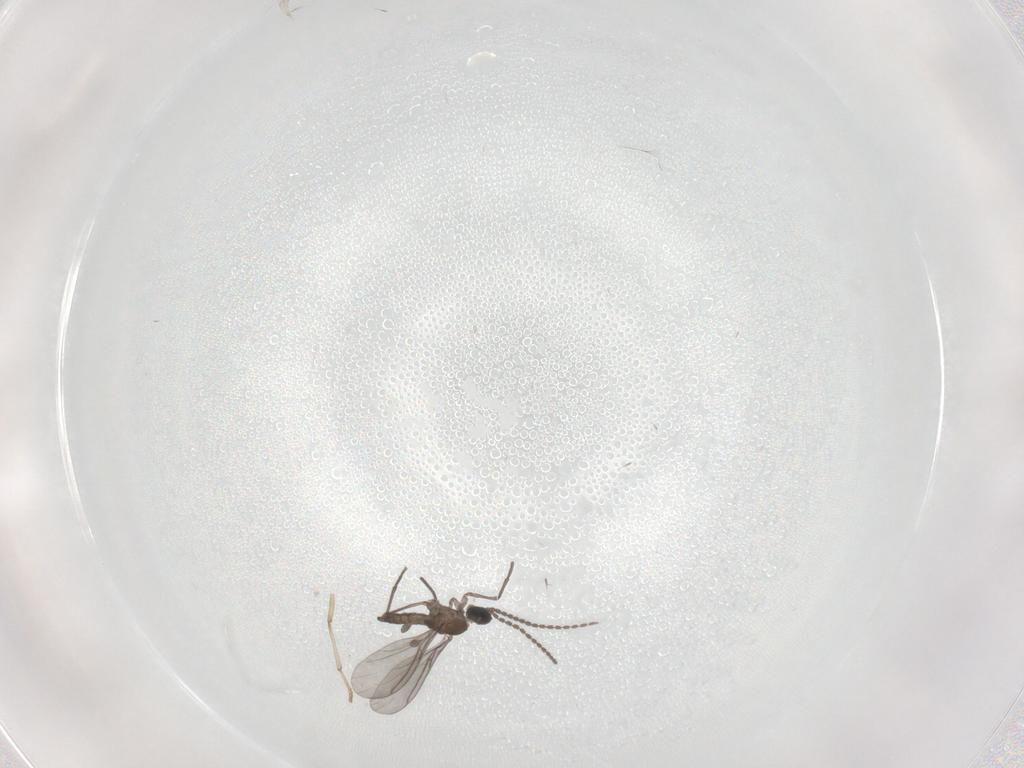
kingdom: Animalia
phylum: Arthropoda
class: Insecta
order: Diptera
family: Sciaridae
